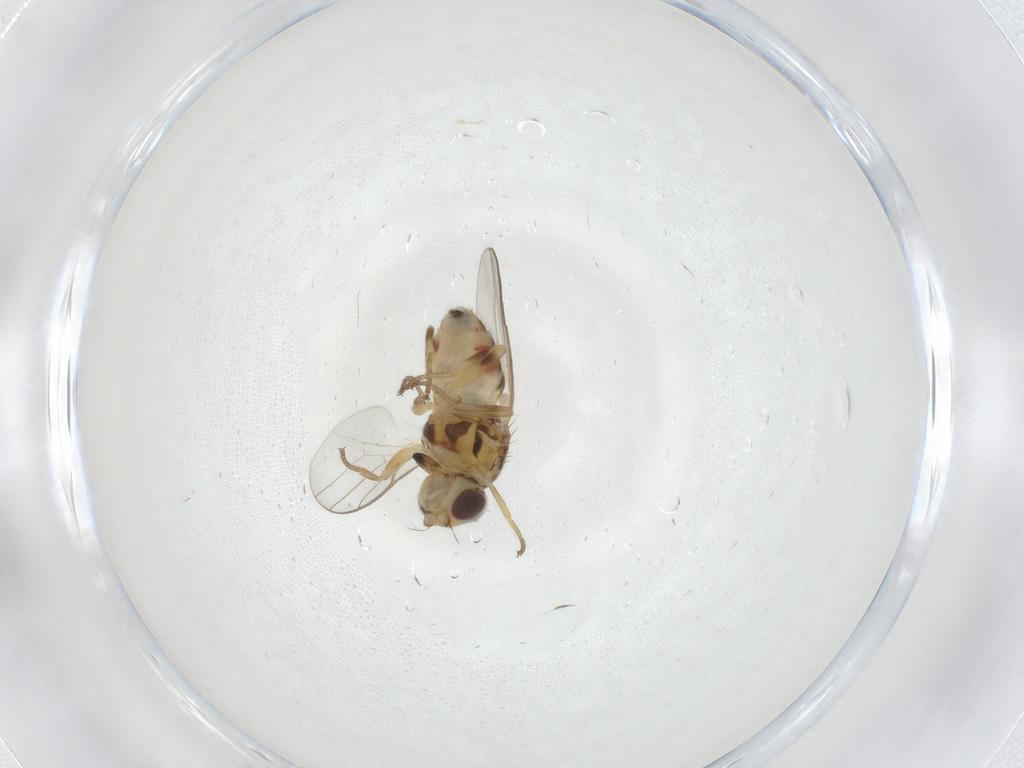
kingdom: Animalia
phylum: Arthropoda
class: Insecta
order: Diptera
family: Chloropidae
